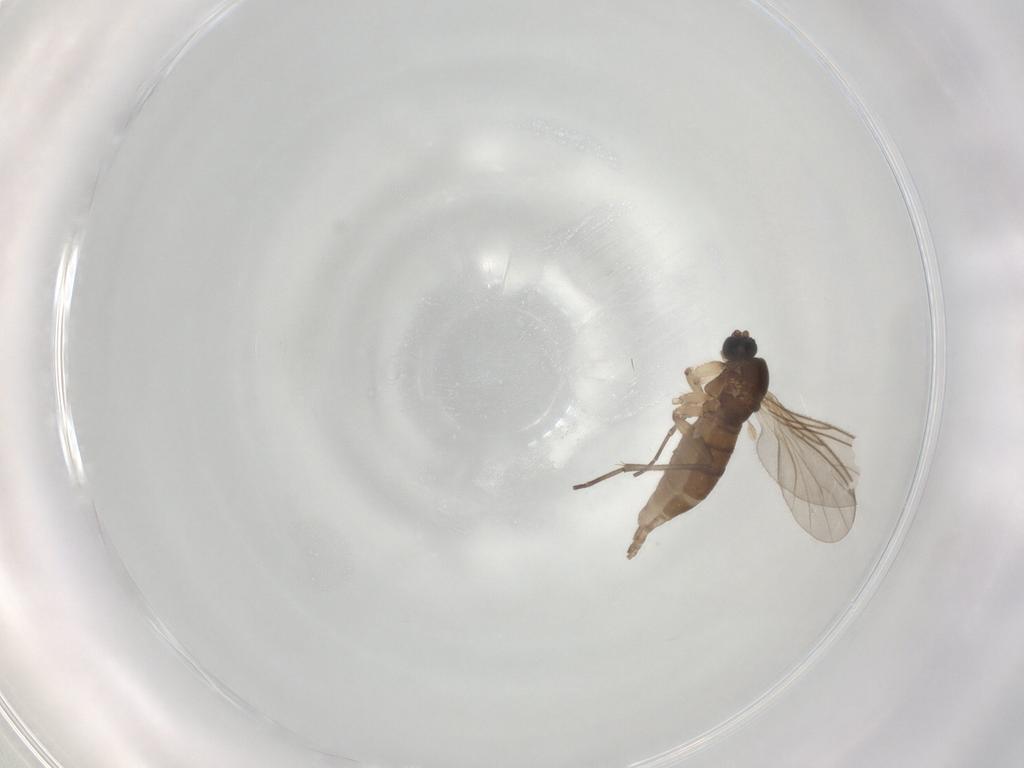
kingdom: Animalia
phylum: Arthropoda
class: Insecta
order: Diptera
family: Sciaridae
